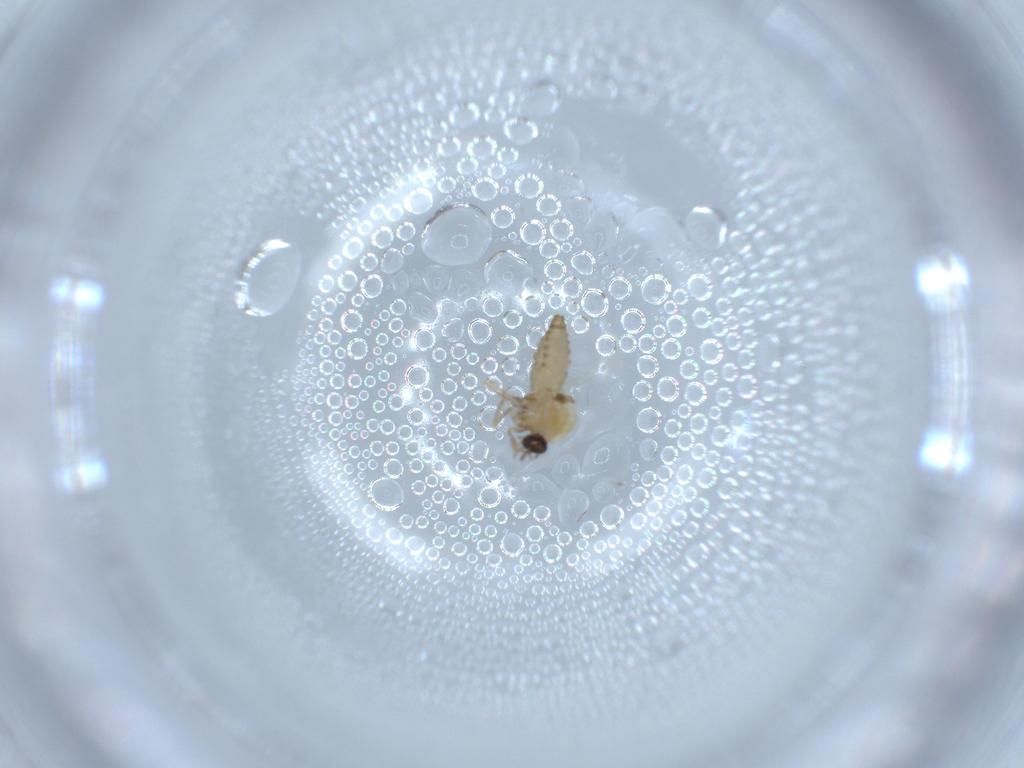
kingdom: Animalia
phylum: Arthropoda
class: Insecta
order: Diptera
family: Ceratopogonidae
